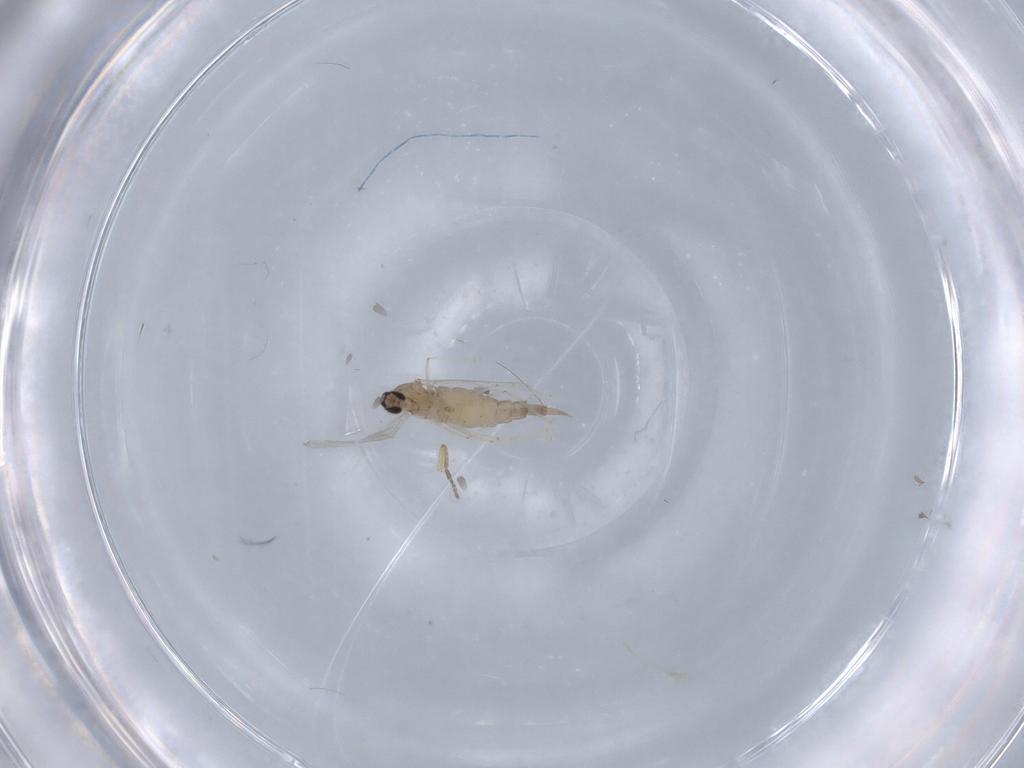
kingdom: Animalia
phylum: Arthropoda
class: Insecta
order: Diptera
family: Phoridae
